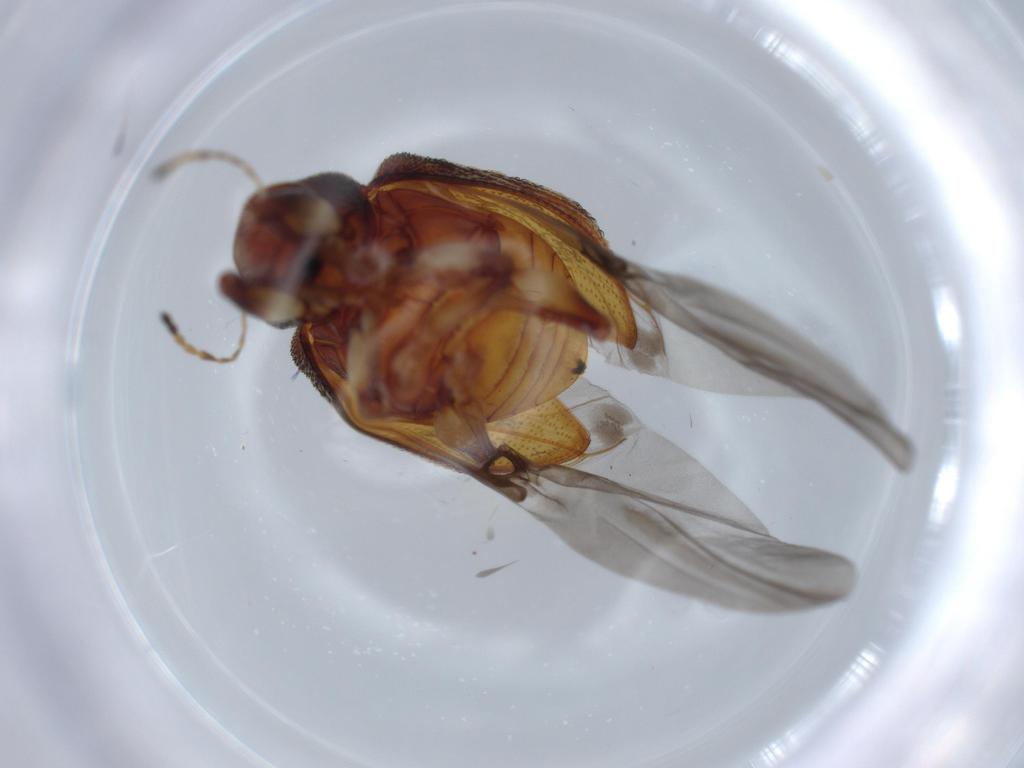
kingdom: Animalia
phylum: Arthropoda
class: Insecta
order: Coleoptera
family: Chrysomelidae
